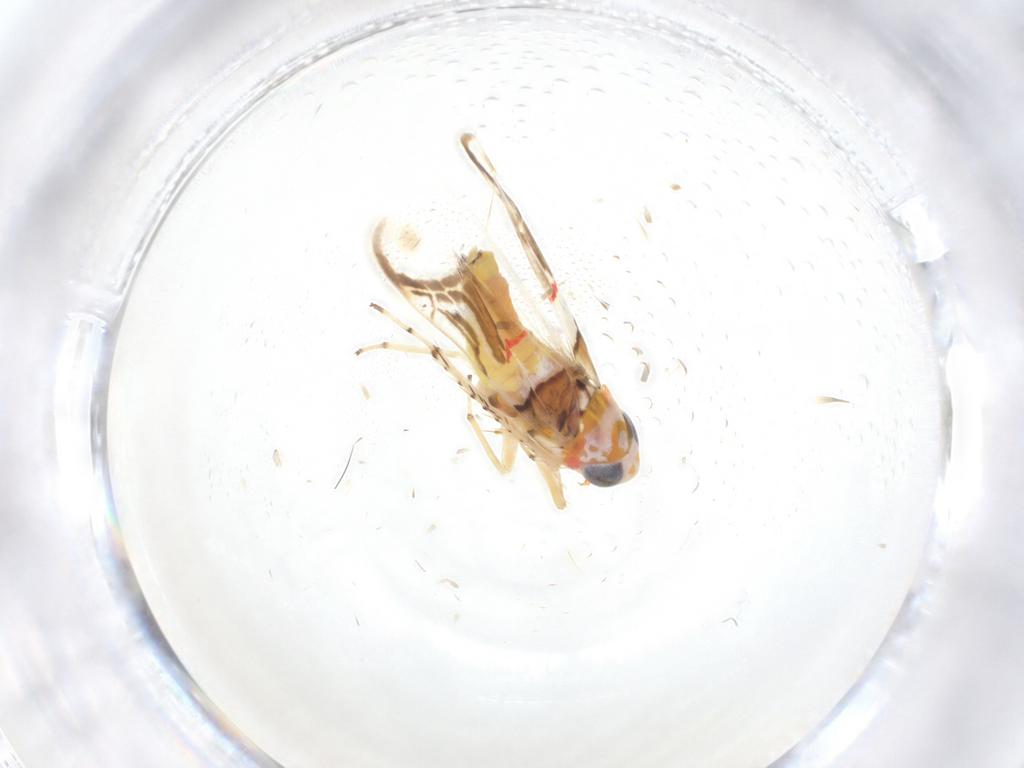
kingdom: Animalia
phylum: Arthropoda
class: Insecta
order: Hemiptera
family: Cicadellidae
